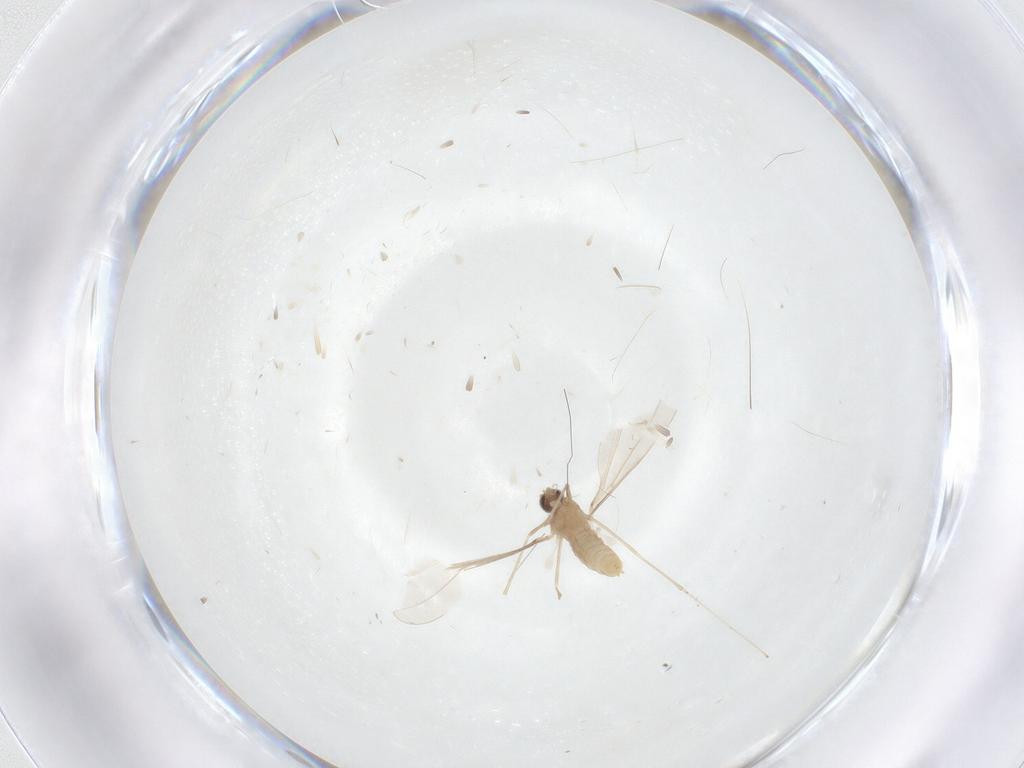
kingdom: Animalia
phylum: Arthropoda
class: Insecta
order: Diptera
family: Cecidomyiidae
